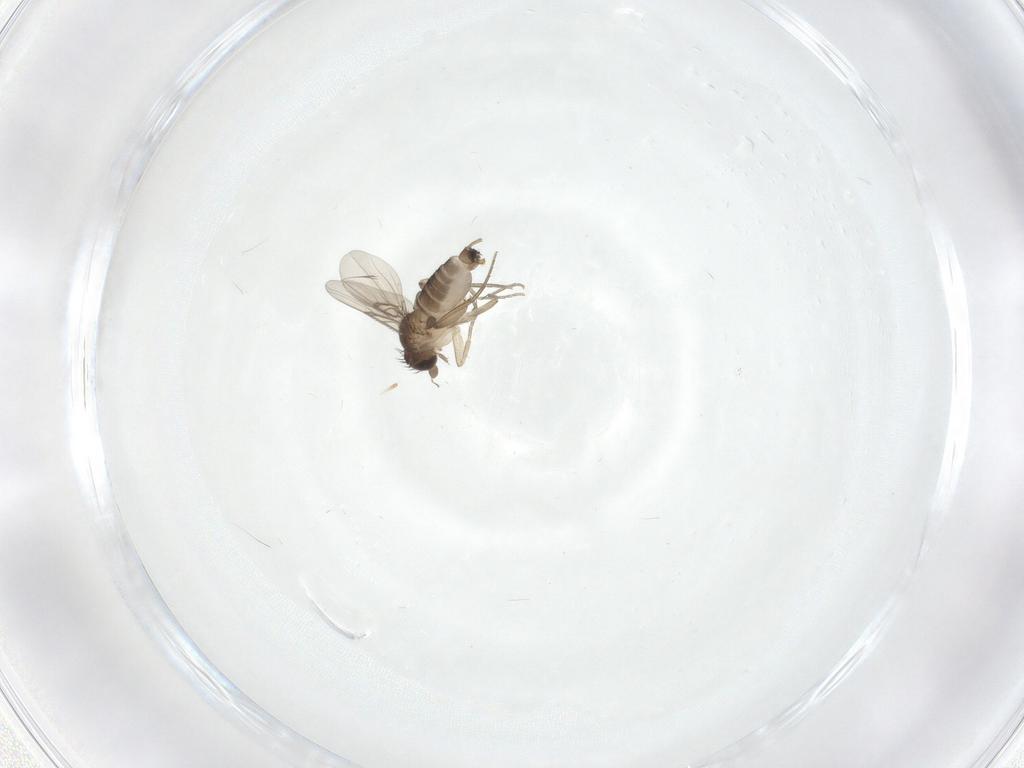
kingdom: Animalia
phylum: Arthropoda
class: Insecta
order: Diptera
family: Phoridae
